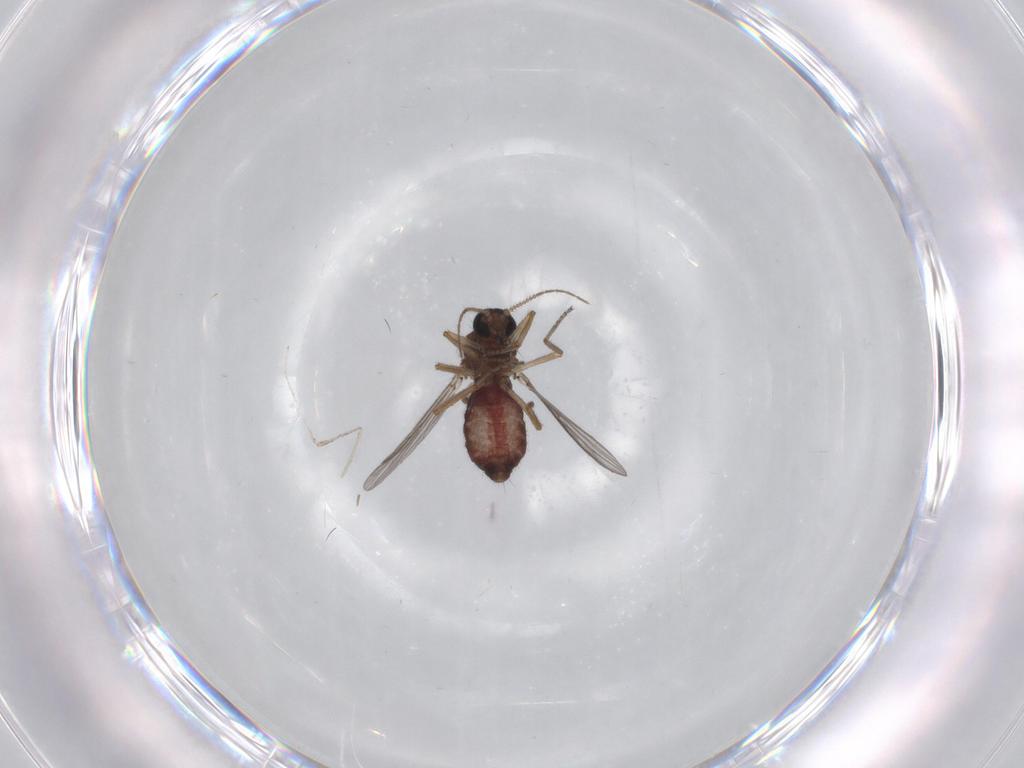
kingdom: Animalia
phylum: Arthropoda
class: Insecta
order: Diptera
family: Ceratopogonidae
